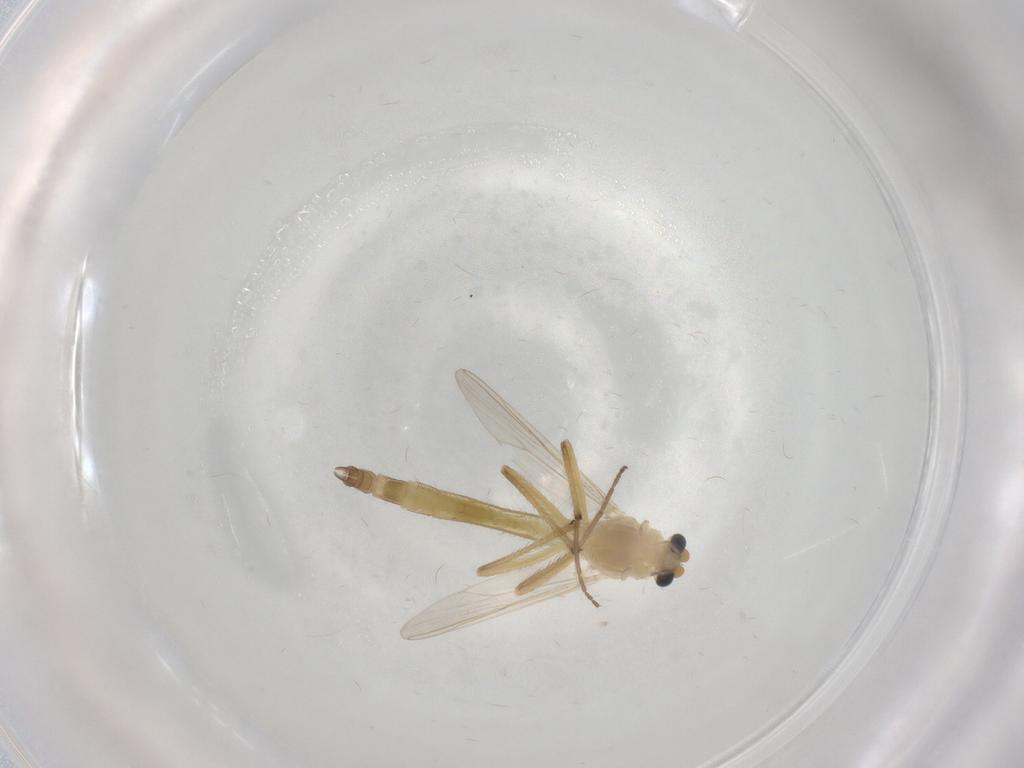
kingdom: Animalia
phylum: Arthropoda
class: Insecta
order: Diptera
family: Chironomidae
